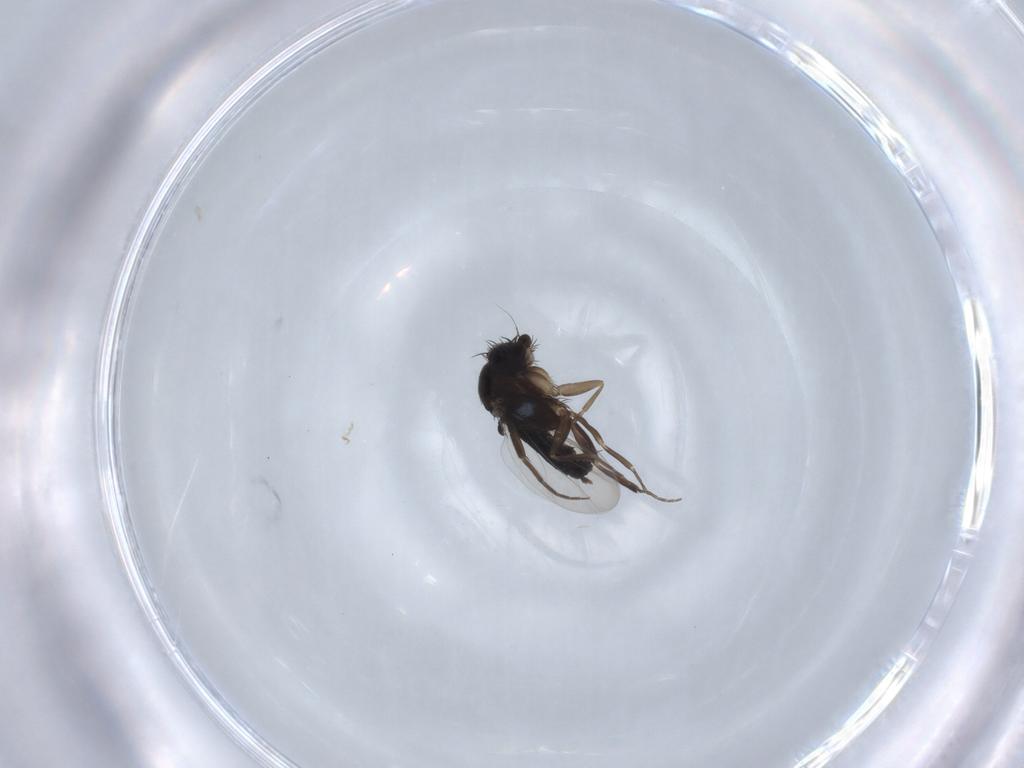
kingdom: Animalia
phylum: Arthropoda
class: Insecta
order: Diptera
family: Phoridae
